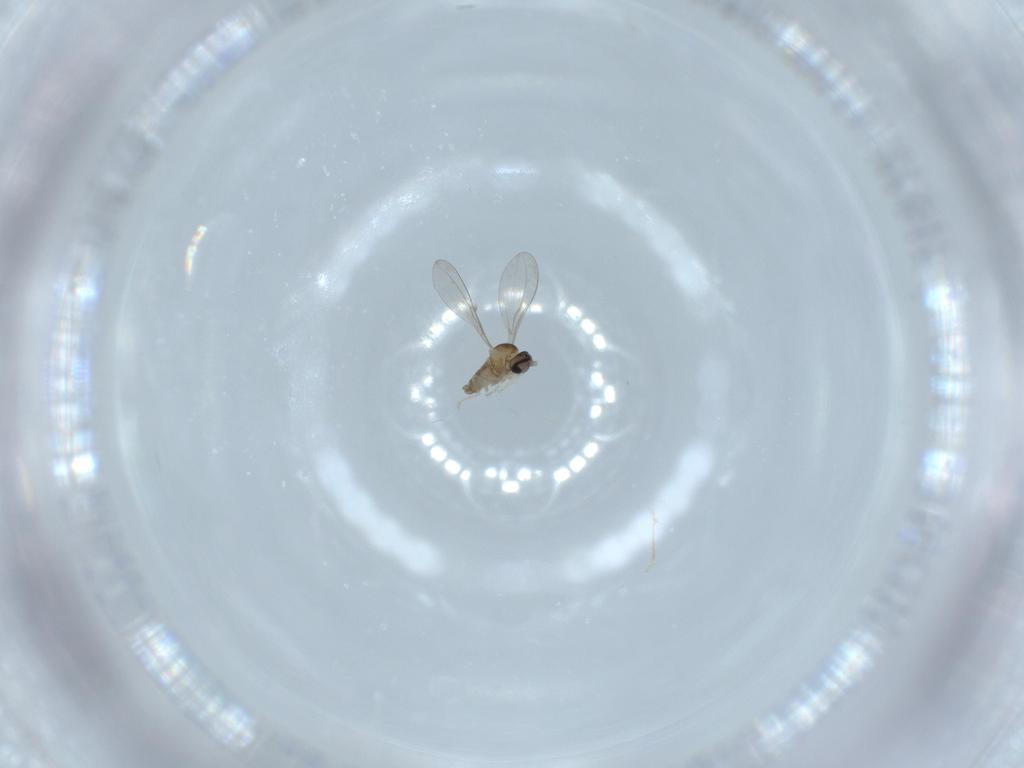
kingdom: Animalia
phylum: Arthropoda
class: Insecta
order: Diptera
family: Cecidomyiidae
